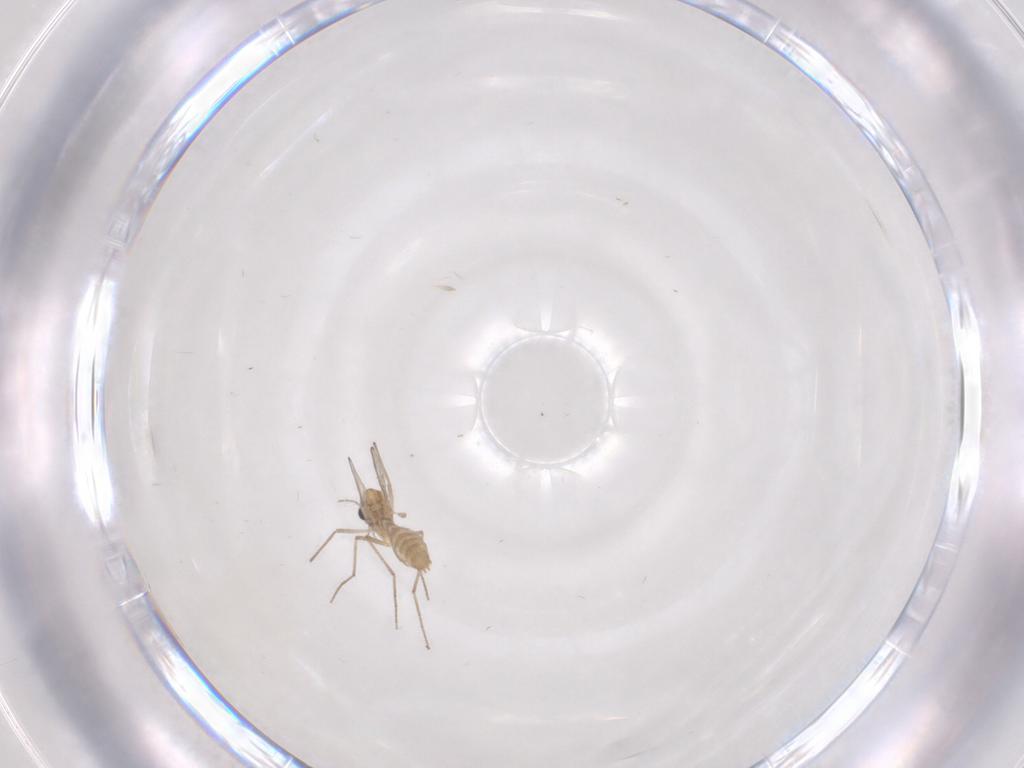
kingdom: Animalia
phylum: Arthropoda
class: Insecta
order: Diptera
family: Chironomidae
